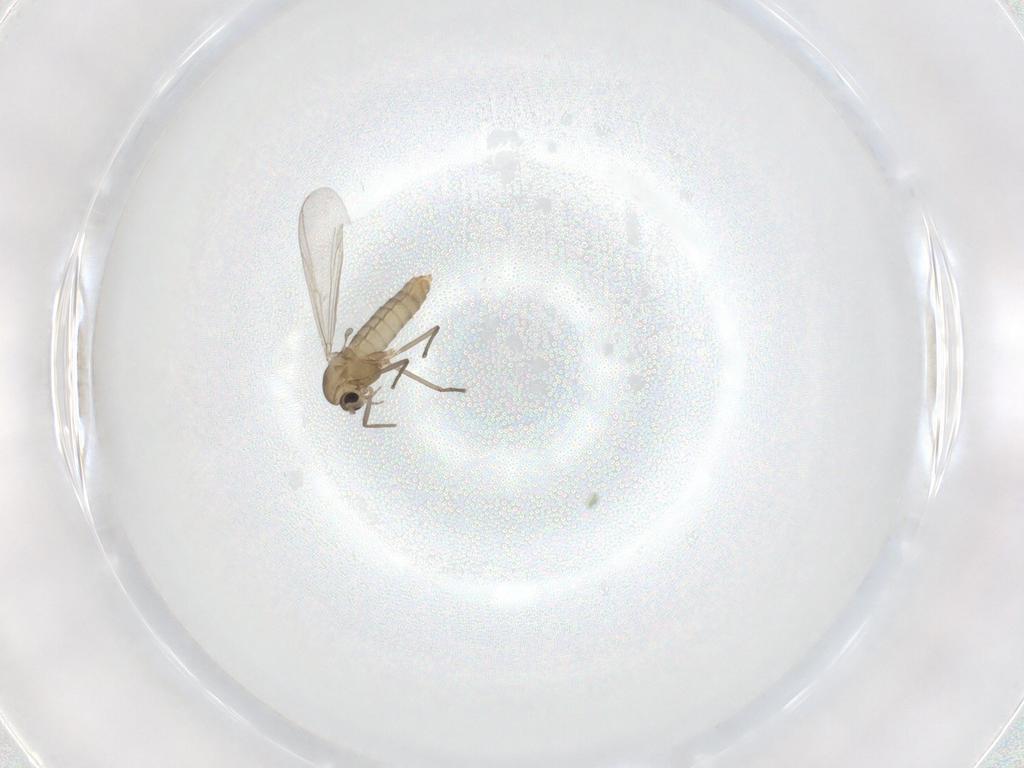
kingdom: Animalia
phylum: Arthropoda
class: Insecta
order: Diptera
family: Chironomidae
